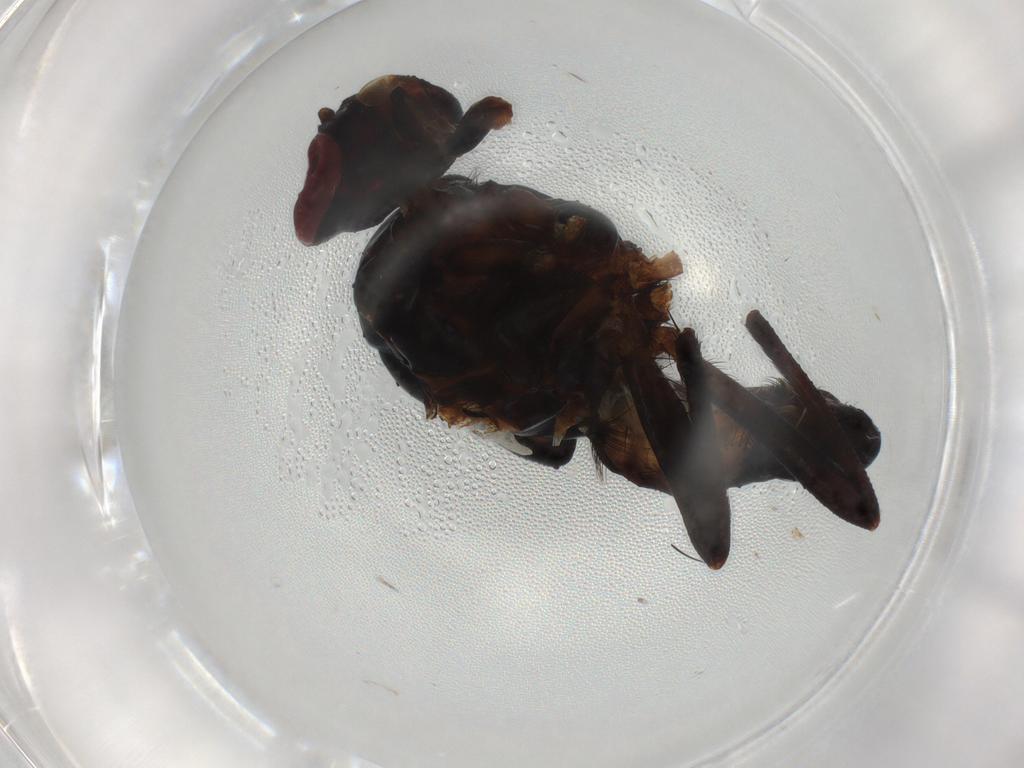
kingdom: Animalia
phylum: Arthropoda
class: Insecta
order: Diptera
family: Anthomyiidae
